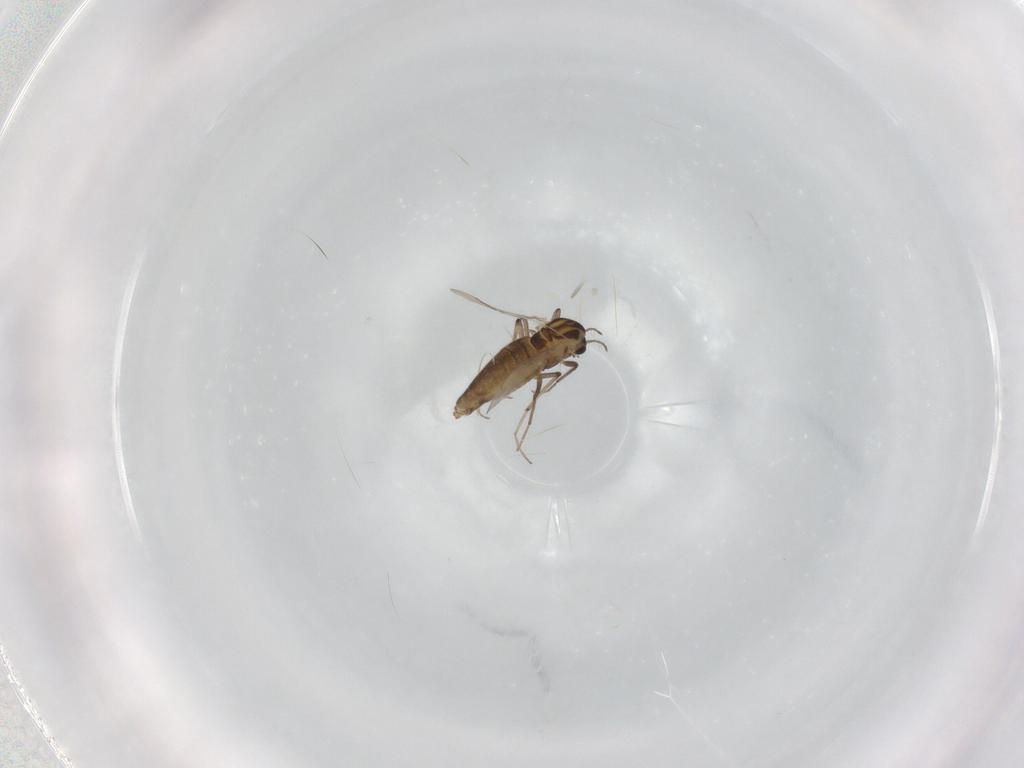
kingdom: Animalia
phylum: Arthropoda
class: Insecta
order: Diptera
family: Chironomidae
